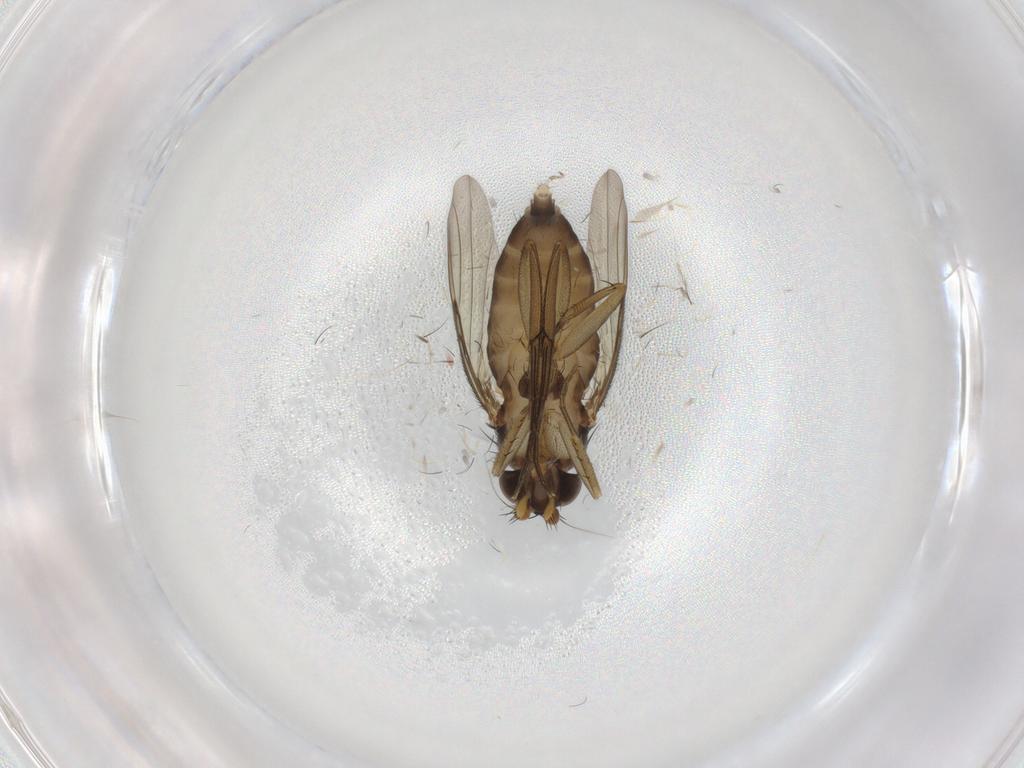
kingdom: Animalia
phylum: Arthropoda
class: Insecta
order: Diptera
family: Phoridae
